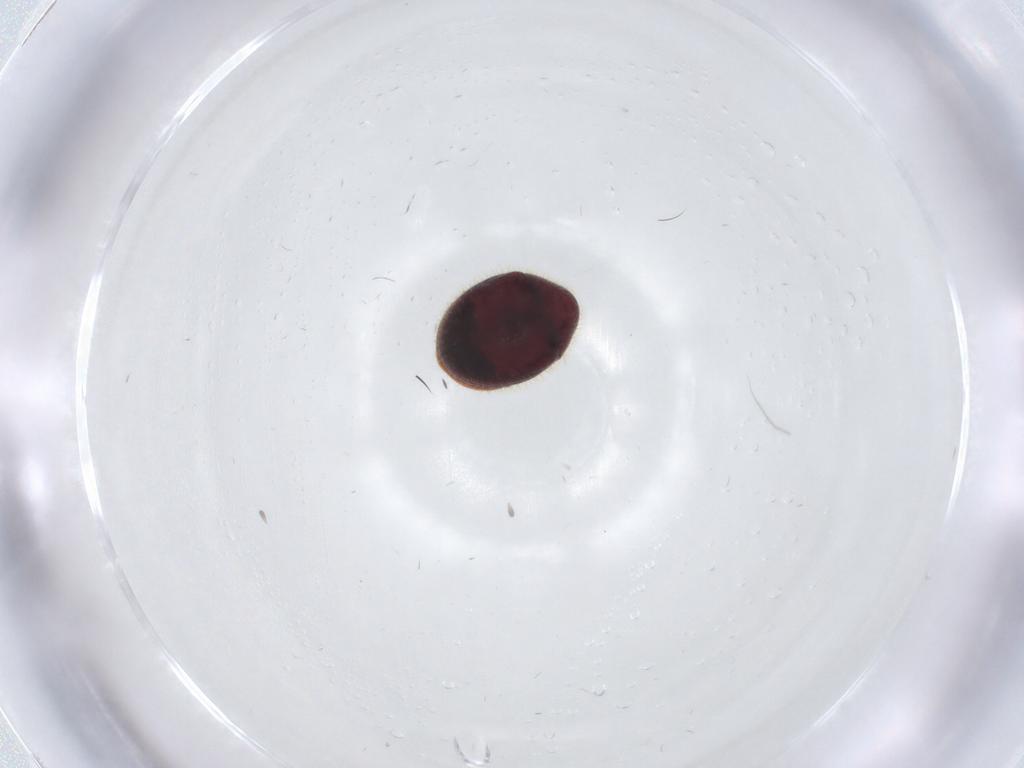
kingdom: Animalia
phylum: Arthropoda
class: Insecta
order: Coleoptera
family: Ptinidae
